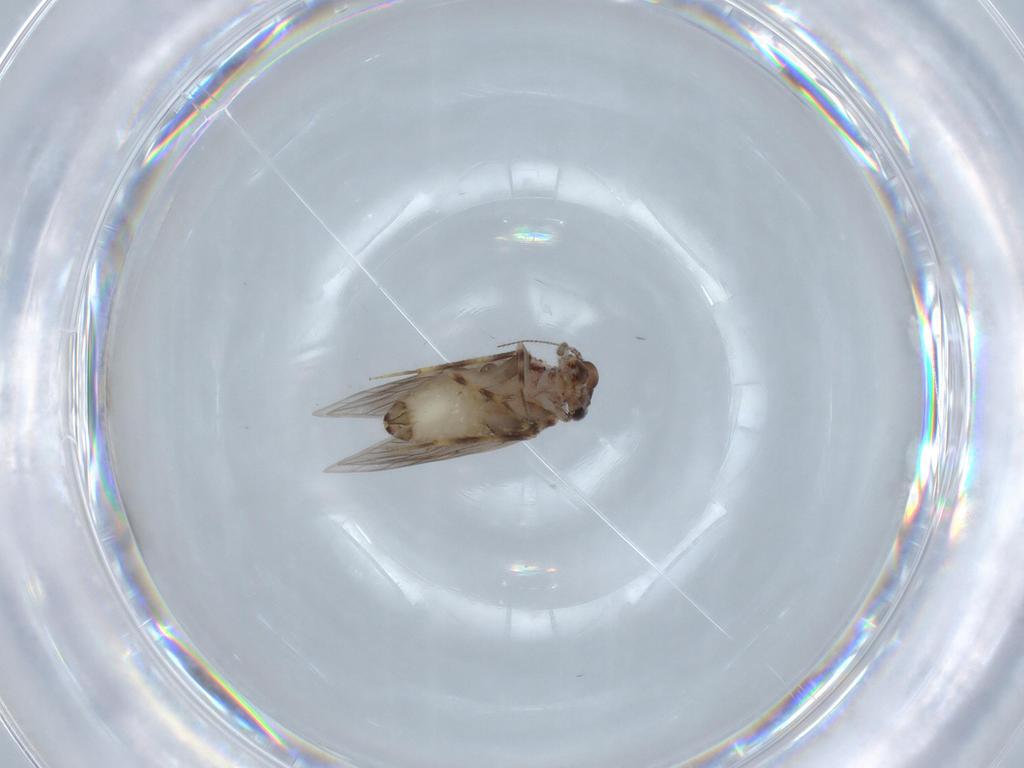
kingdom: Animalia
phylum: Arthropoda
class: Insecta
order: Psocodea
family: Lepidopsocidae
